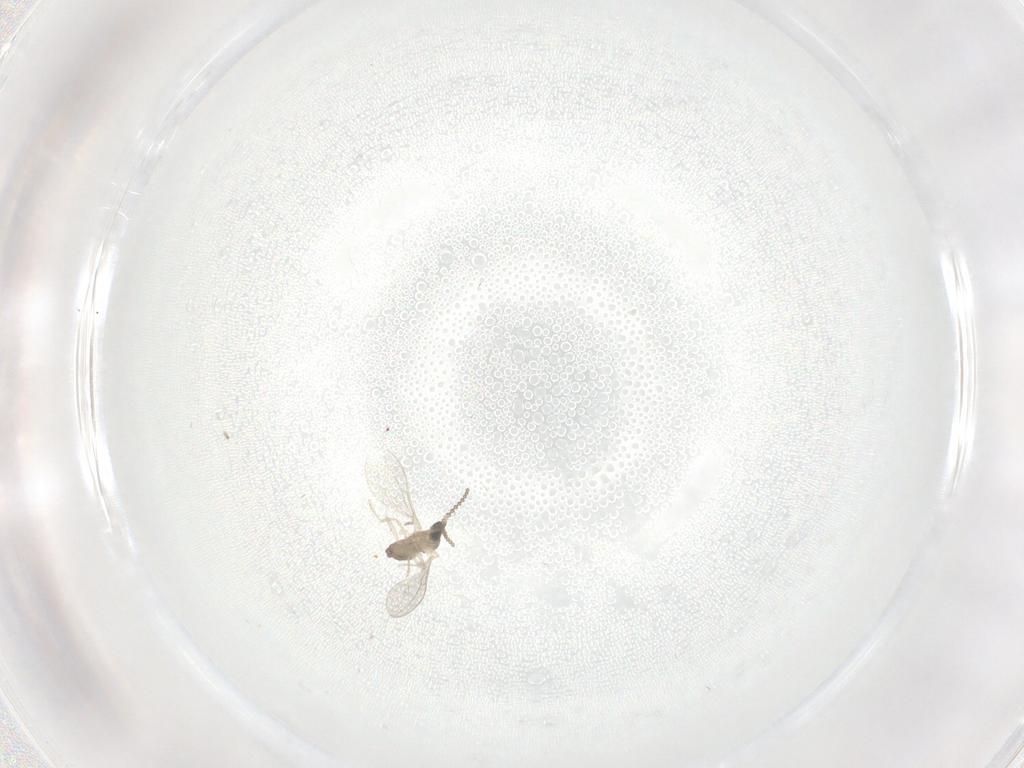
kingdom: Animalia
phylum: Arthropoda
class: Insecta
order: Diptera
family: Cecidomyiidae
